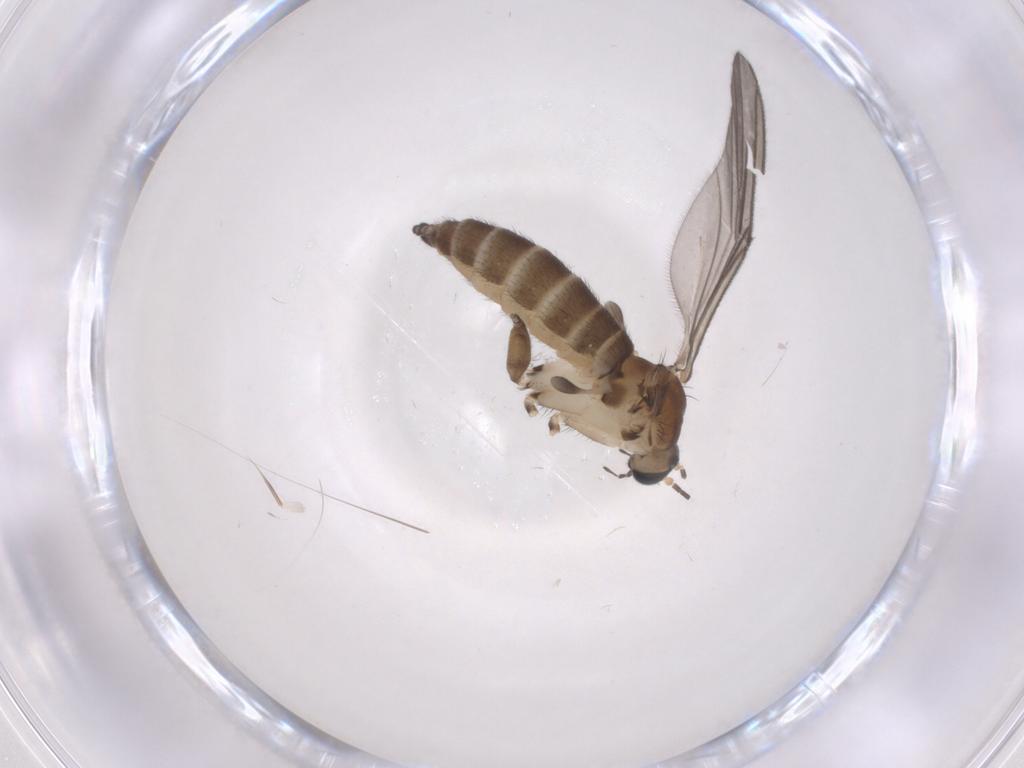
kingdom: Animalia
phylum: Arthropoda
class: Insecta
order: Diptera
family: Sciaridae
